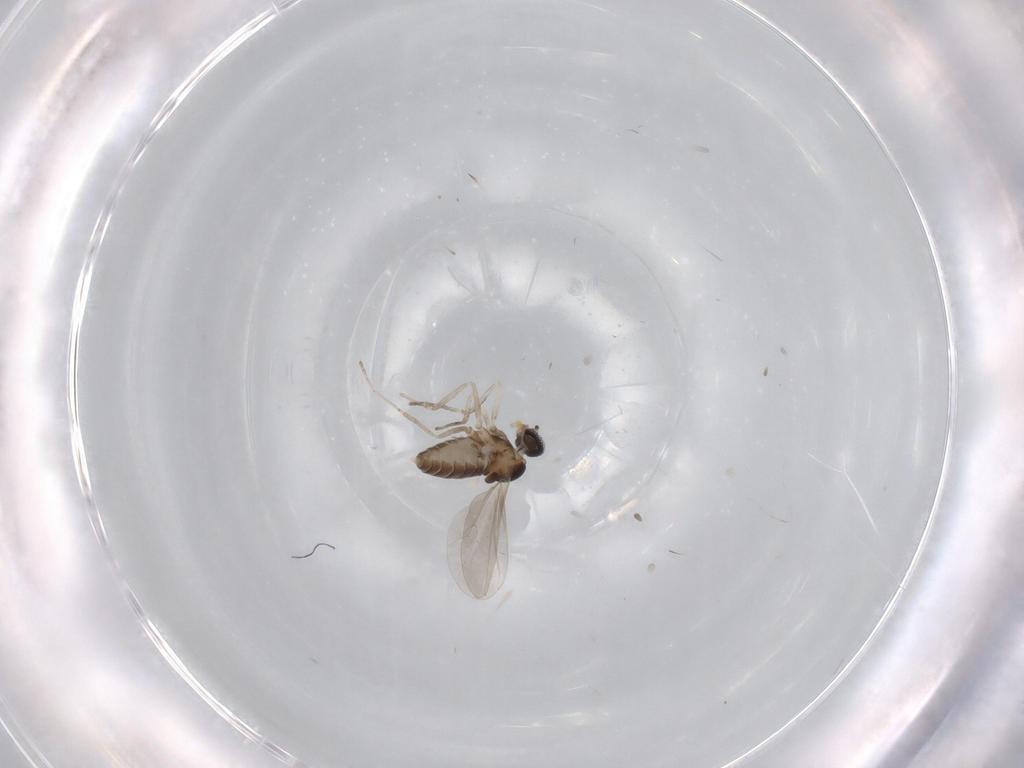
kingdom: Animalia
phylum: Arthropoda
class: Insecta
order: Diptera
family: Cecidomyiidae
